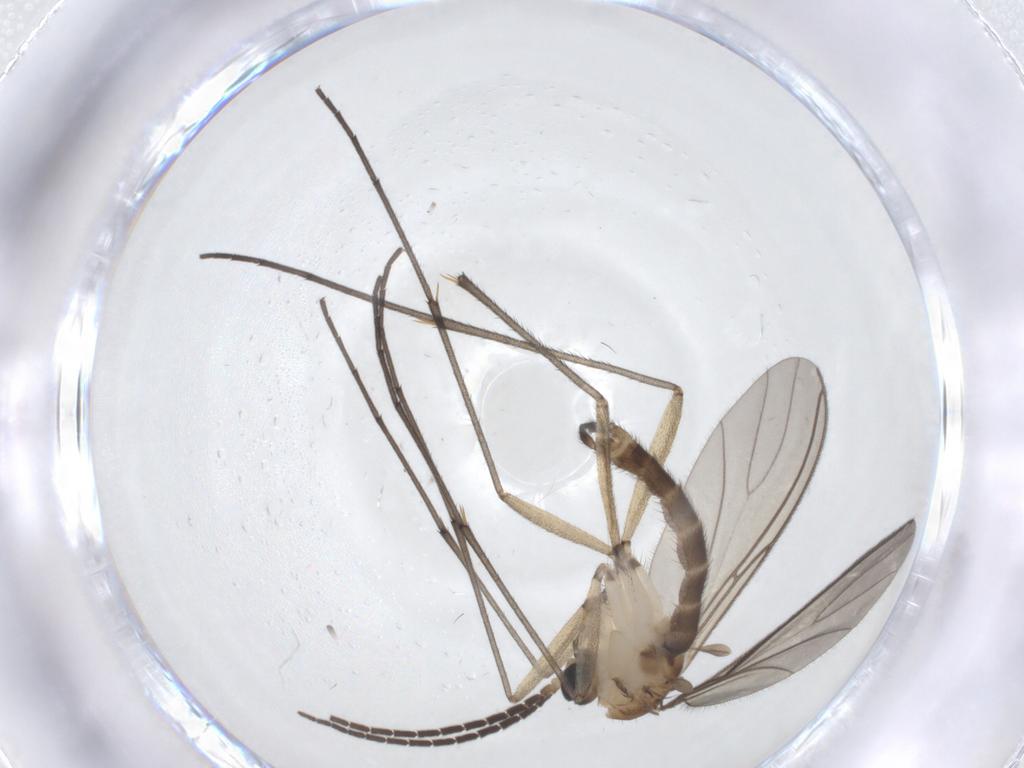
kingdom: Animalia
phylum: Arthropoda
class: Insecta
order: Diptera
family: Sciaridae
